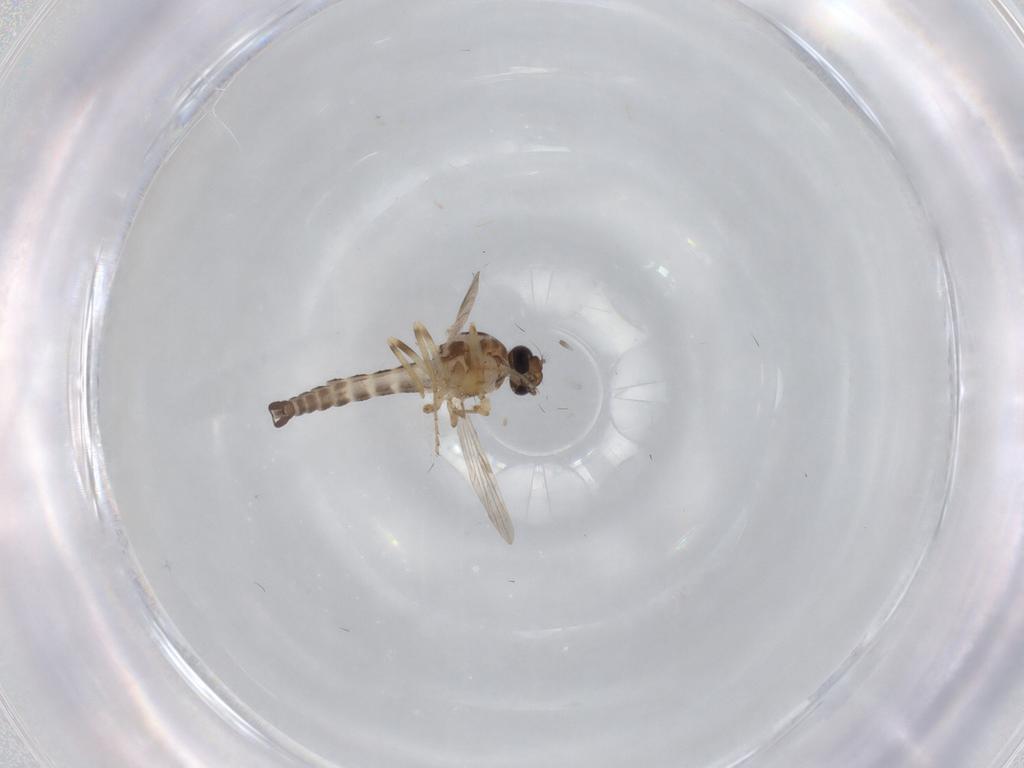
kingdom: Animalia
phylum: Arthropoda
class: Insecta
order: Diptera
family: Ceratopogonidae
